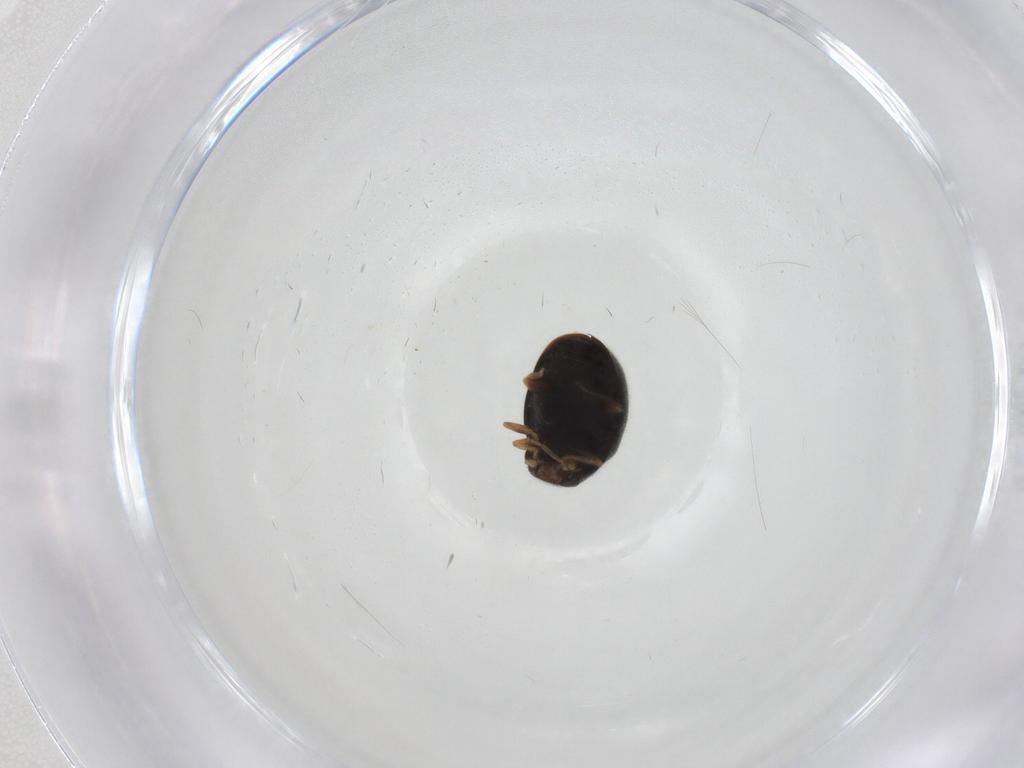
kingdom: Animalia
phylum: Arthropoda
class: Insecta
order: Coleoptera
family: Coccinellidae
